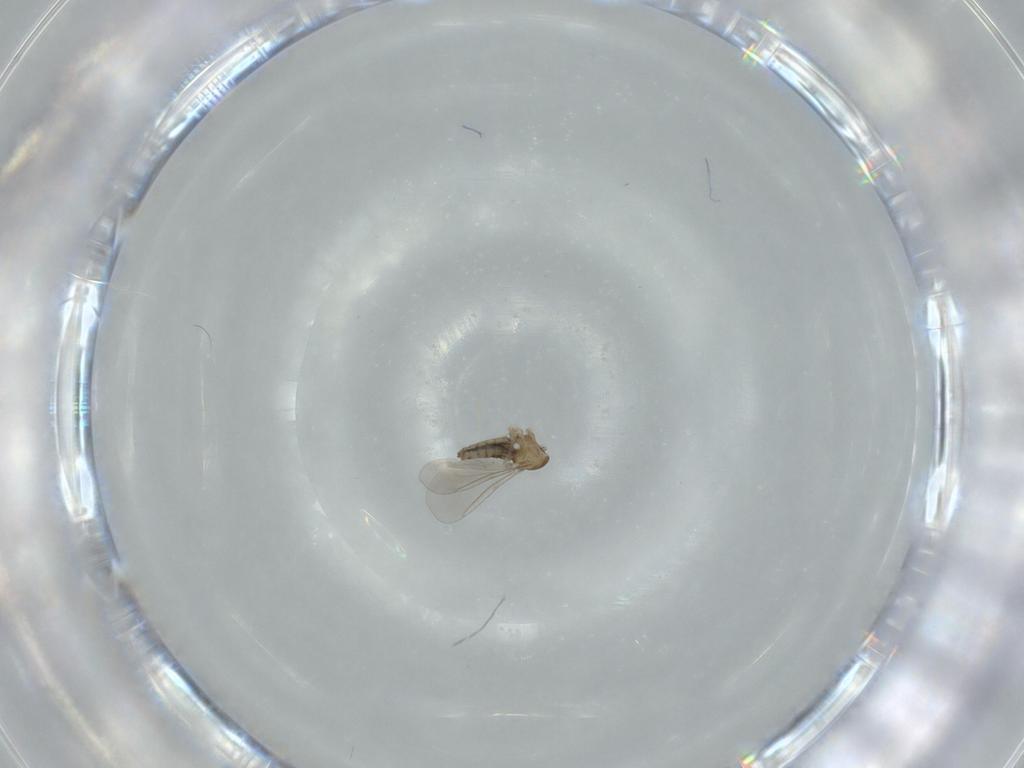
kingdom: Animalia
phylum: Arthropoda
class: Insecta
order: Diptera
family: Cecidomyiidae
